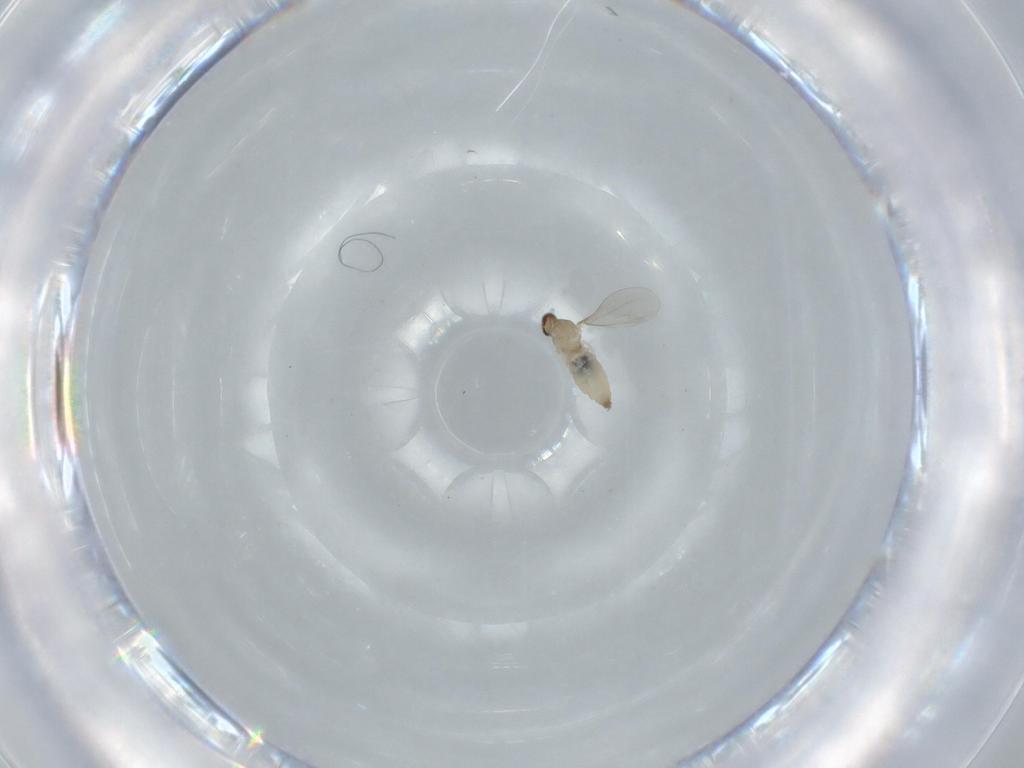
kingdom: Animalia
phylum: Arthropoda
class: Insecta
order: Diptera
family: Cecidomyiidae
